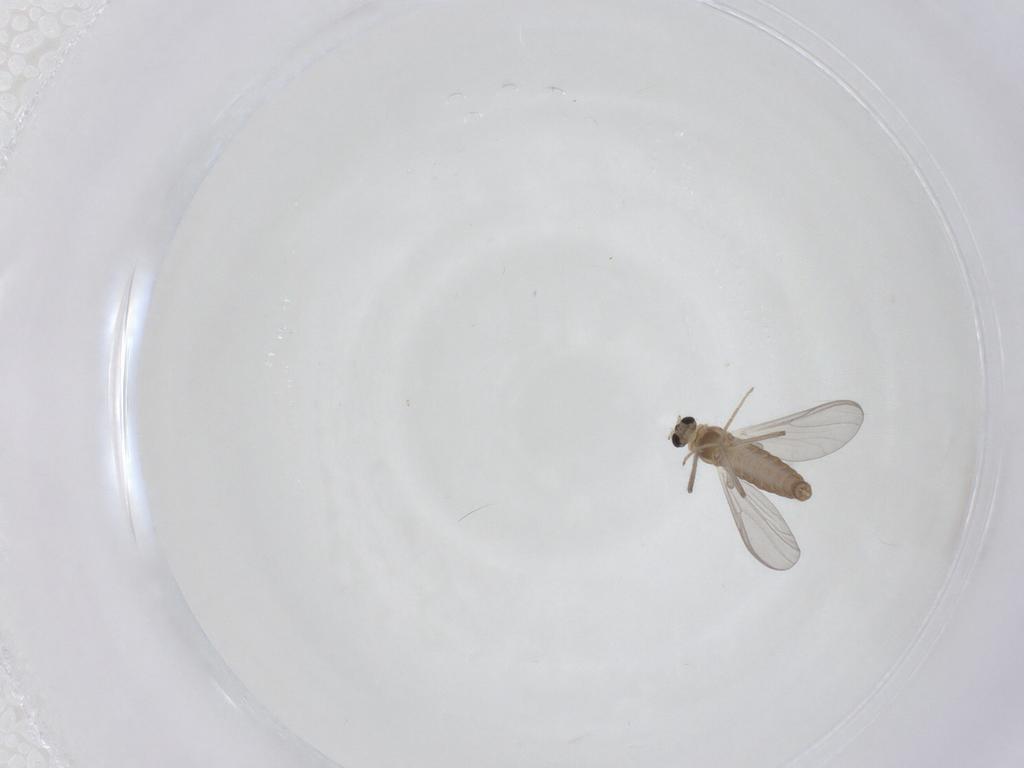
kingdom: Animalia
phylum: Arthropoda
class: Insecta
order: Diptera
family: Chironomidae
